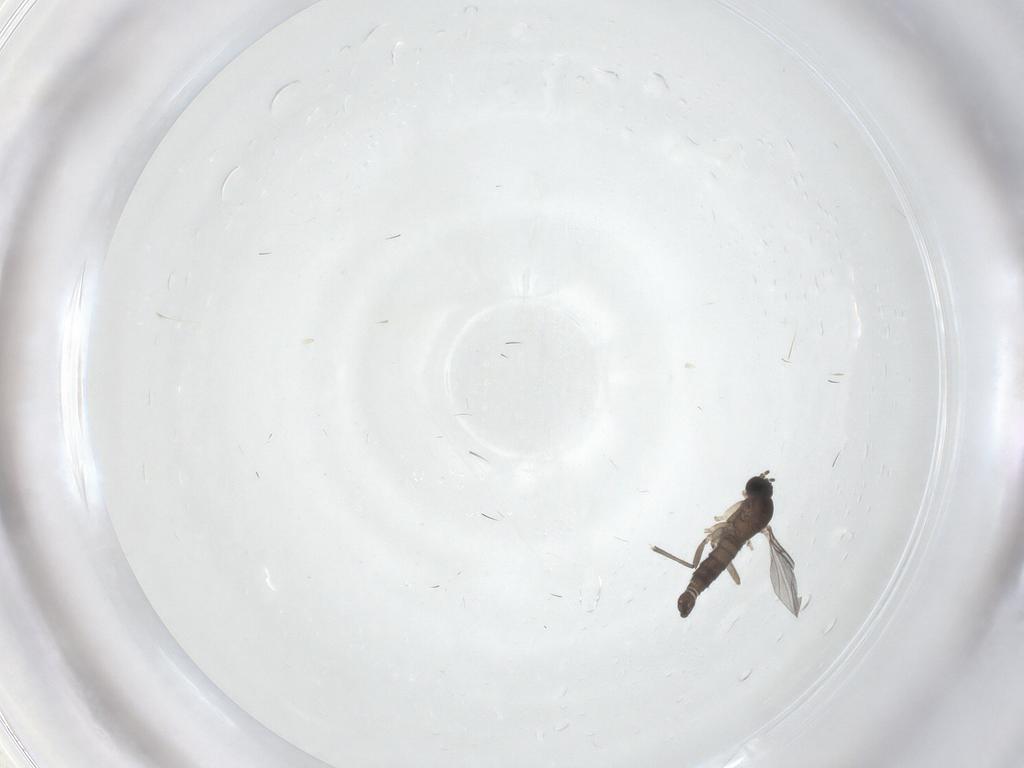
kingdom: Animalia
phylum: Arthropoda
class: Insecta
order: Diptera
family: Sciaridae
